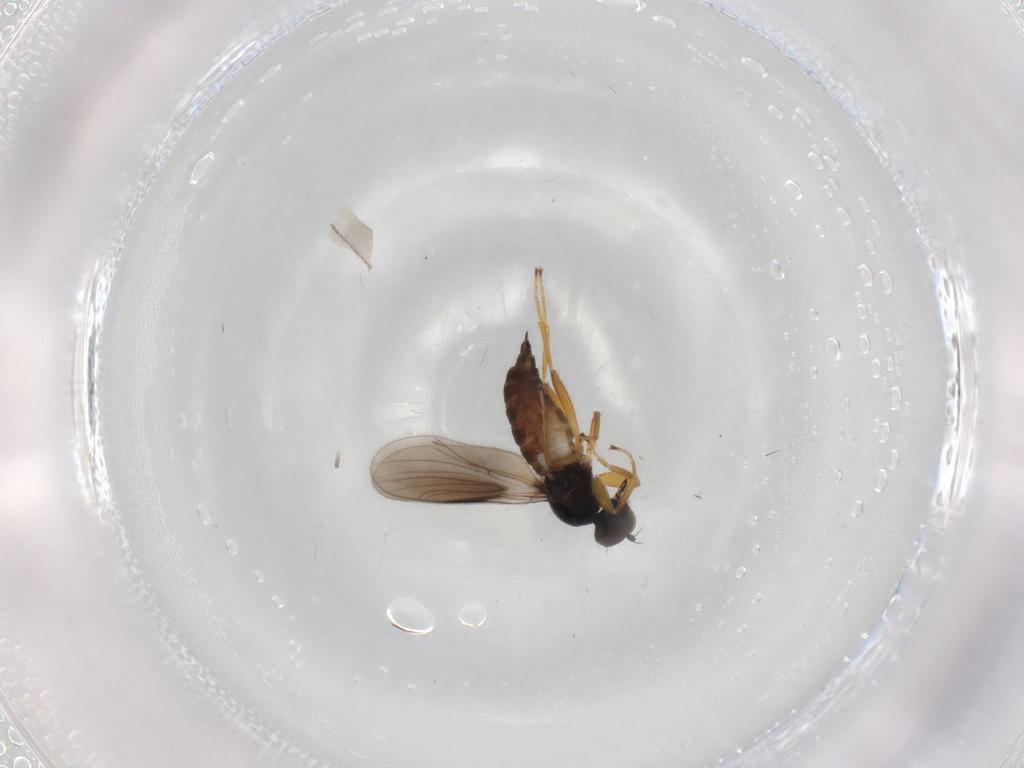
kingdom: Animalia
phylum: Arthropoda
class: Insecta
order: Diptera
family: Hybotidae
